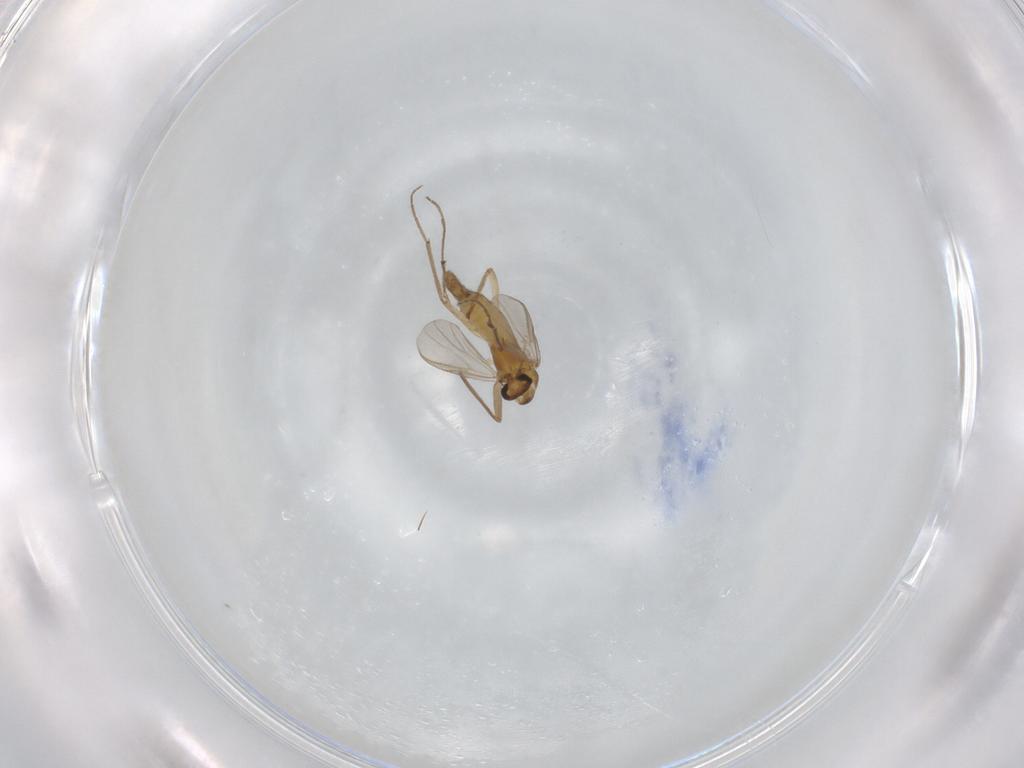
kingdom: Animalia
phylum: Arthropoda
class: Insecta
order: Diptera
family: Chironomidae
